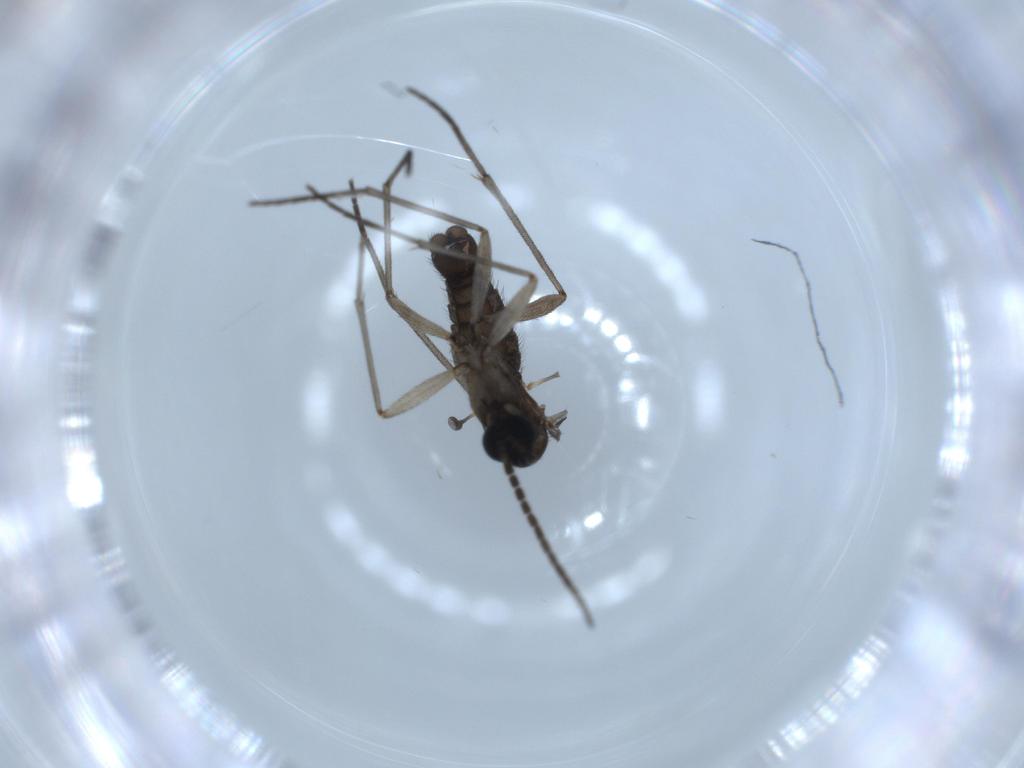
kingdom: Animalia
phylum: Arthropoda
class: Insecta
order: Diptera
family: Sciaridae
